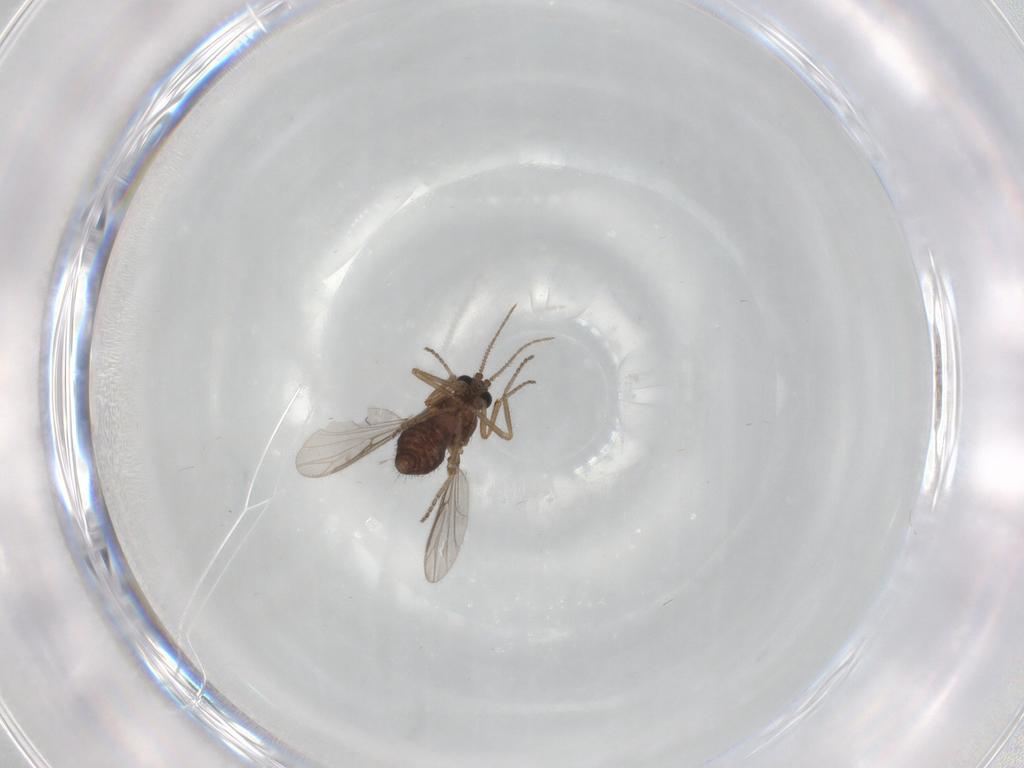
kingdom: Animalia
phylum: Arthropoda
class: Insecta
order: Diptera
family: Ceratopogonidae
